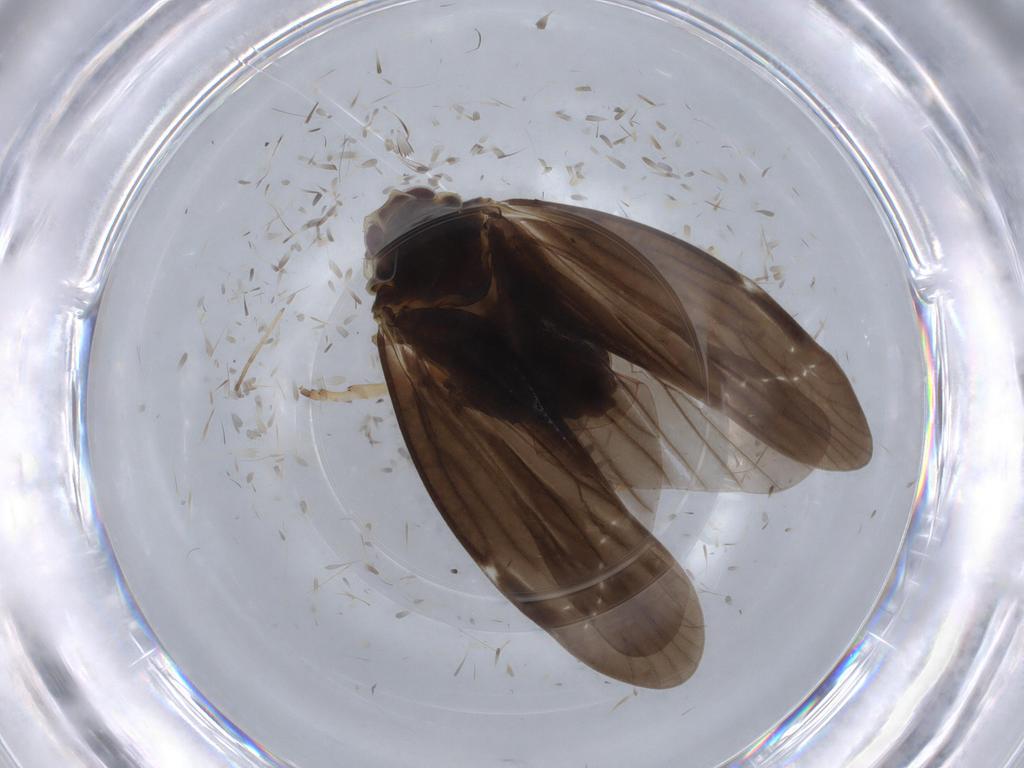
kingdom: Animalia
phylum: Arthropoda
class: Insecta
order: Hemiptera
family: Derbidae
